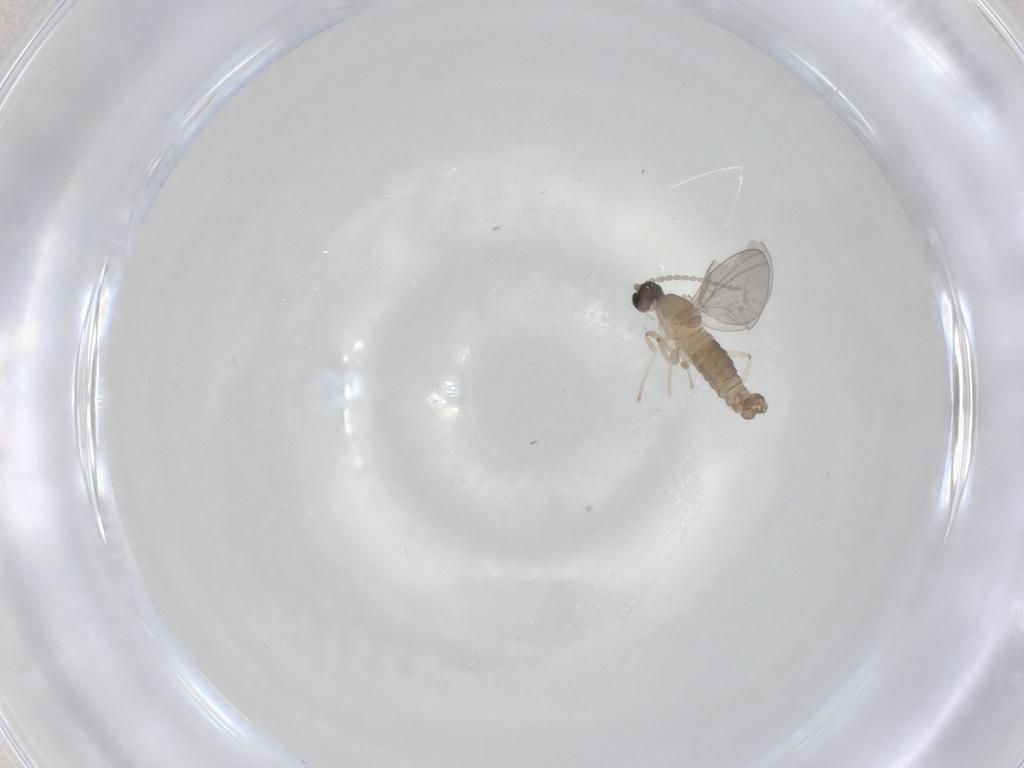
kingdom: Animalia
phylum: Arthropoda
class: Insecta
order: Diptera
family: Cecidomyiidae
